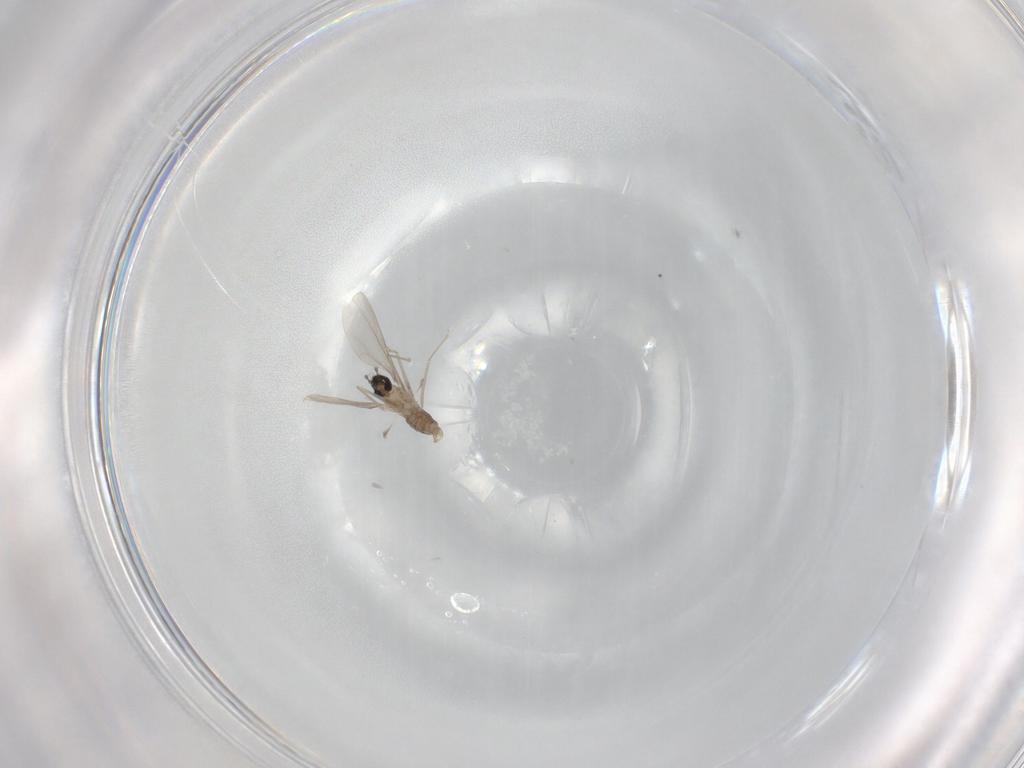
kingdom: Animalia
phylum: Arthropoda
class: Insecta
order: Diptera
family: Cecidomyiidae
